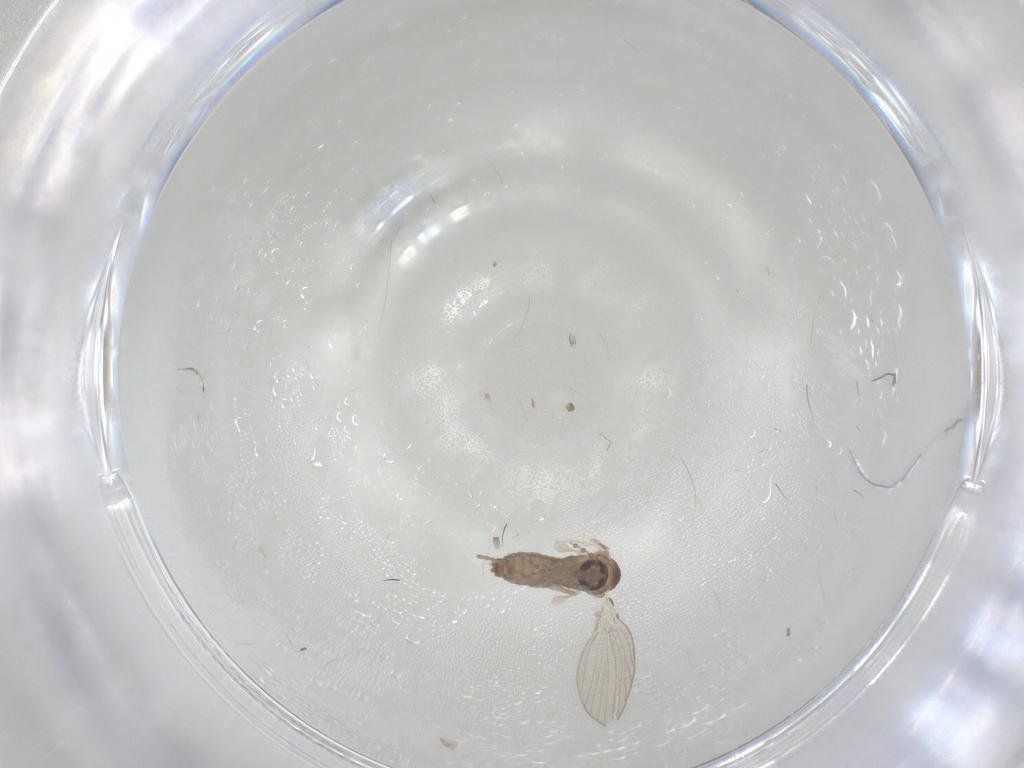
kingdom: Animalia
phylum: Arthropoda
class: Insecta
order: Diptera
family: Psychodidae
